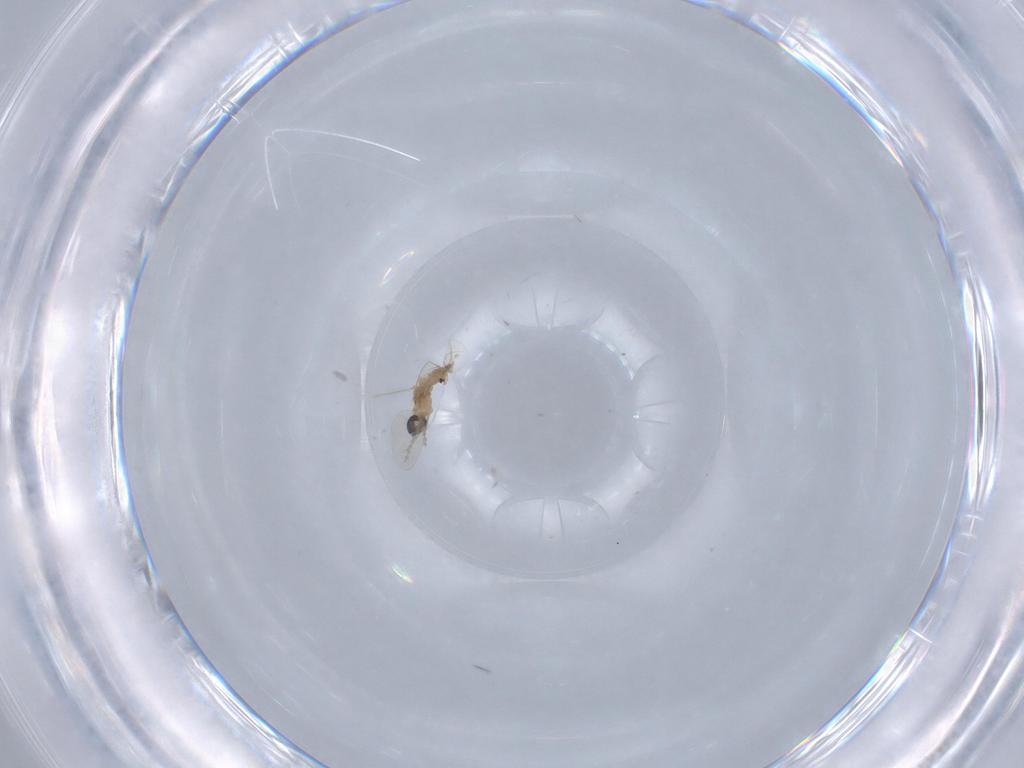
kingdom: Animalia
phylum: Arthropoda
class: Insecta
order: Diptera
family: Cecidomyiidae
